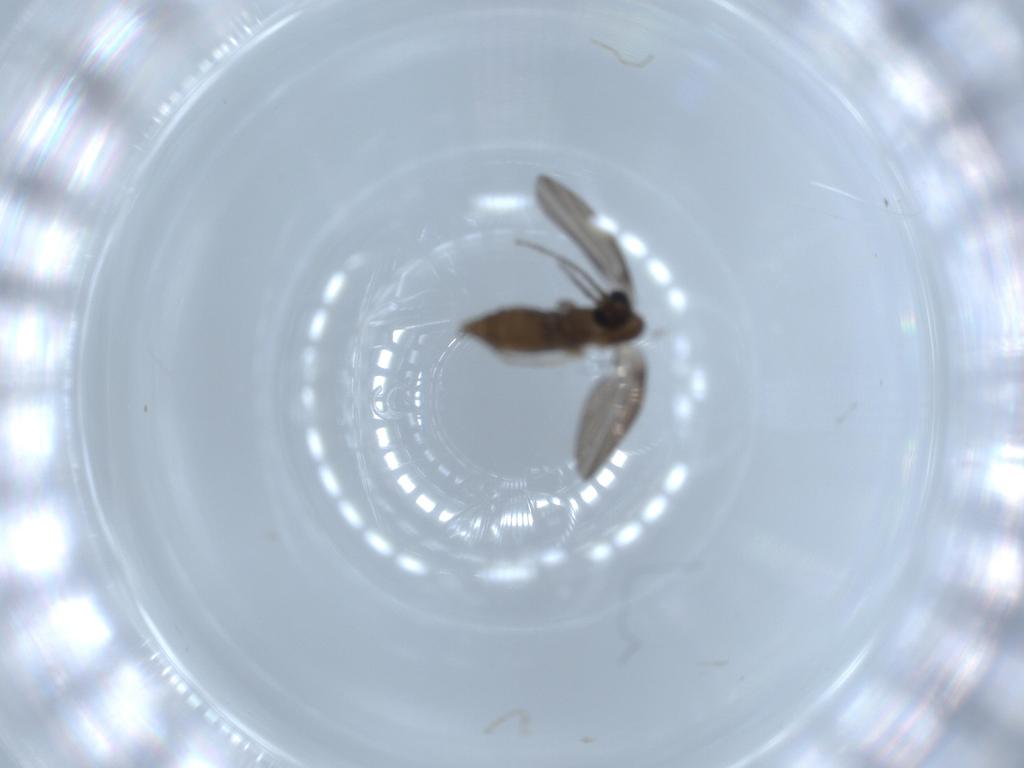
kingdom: Animalia
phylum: Arthropoda
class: Insecta
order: Diptera
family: Psychodidae
